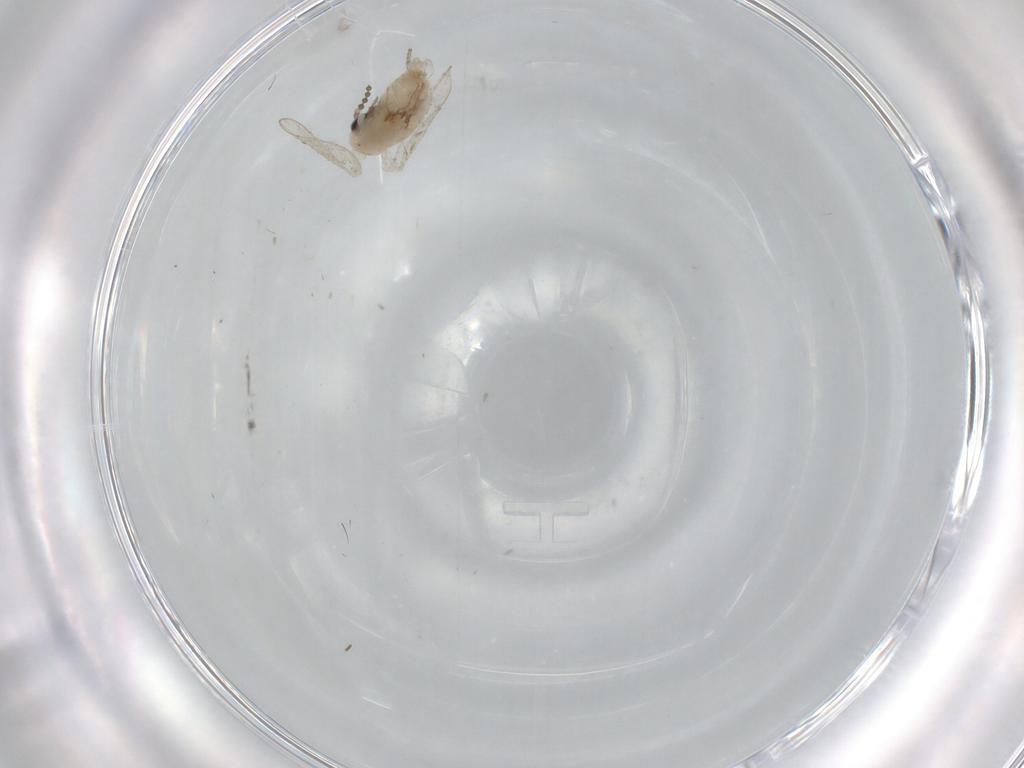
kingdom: Animalia
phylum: Arthropoda
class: Insecta
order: Diptera
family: Psychodidae
